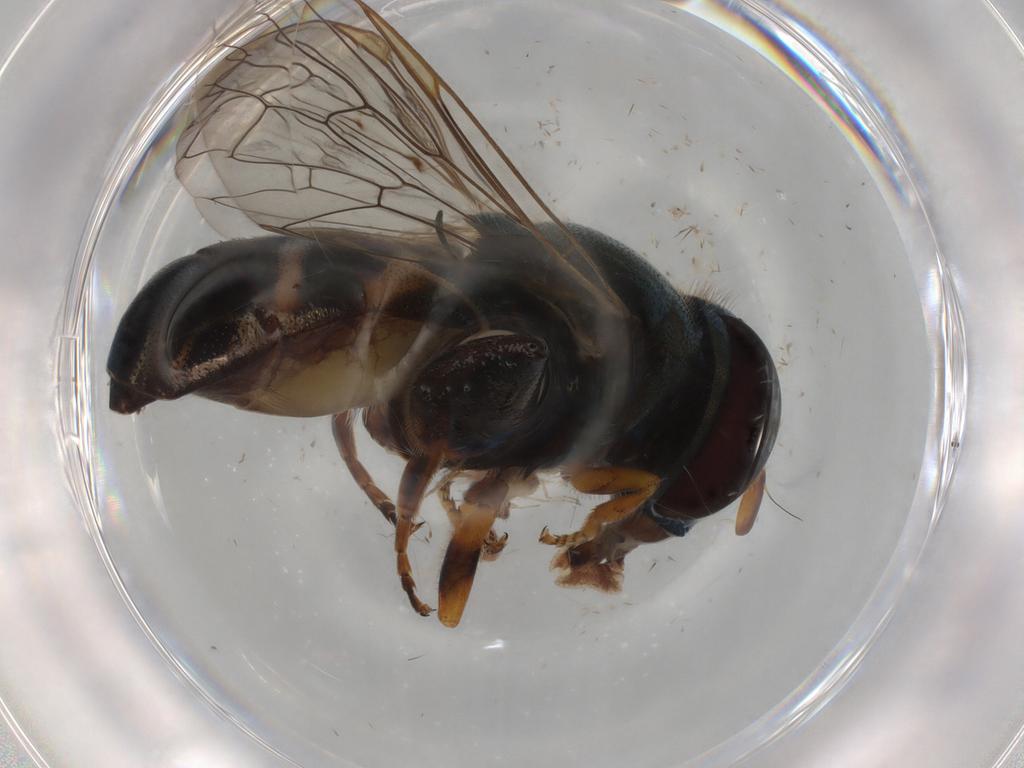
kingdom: Animalia
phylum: Arthropoda
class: Insecta
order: Diptera
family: Syrphidae
